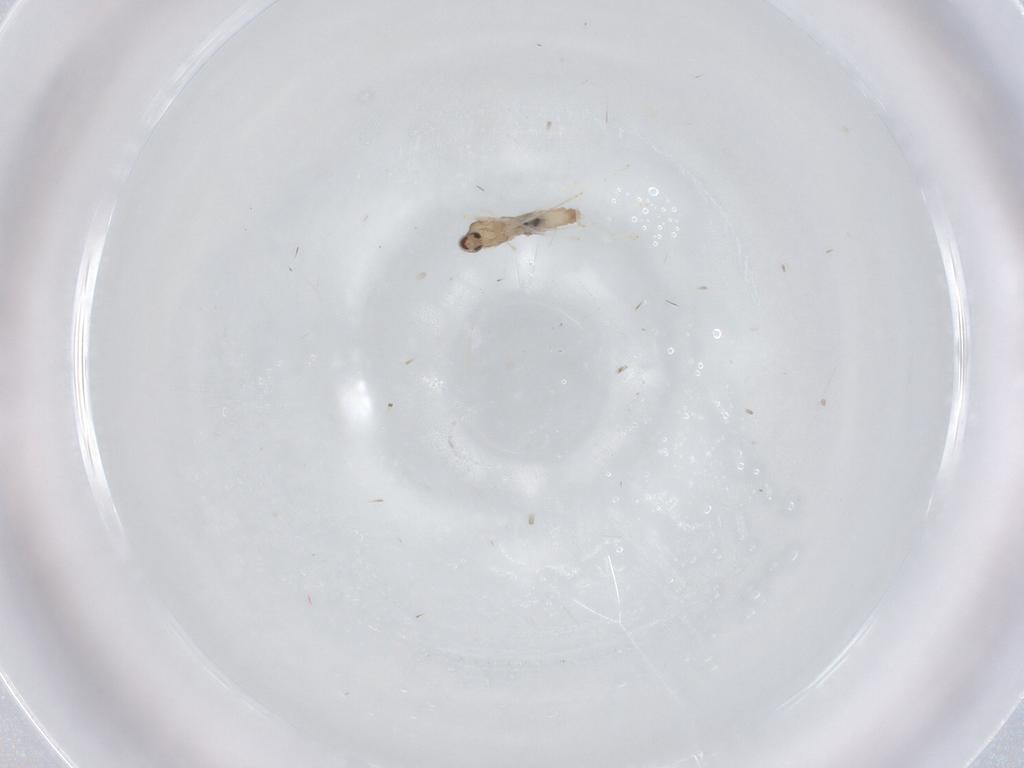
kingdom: Animalia
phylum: Arthropoda
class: Insecta
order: Diptera
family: Cecidomyiidae
